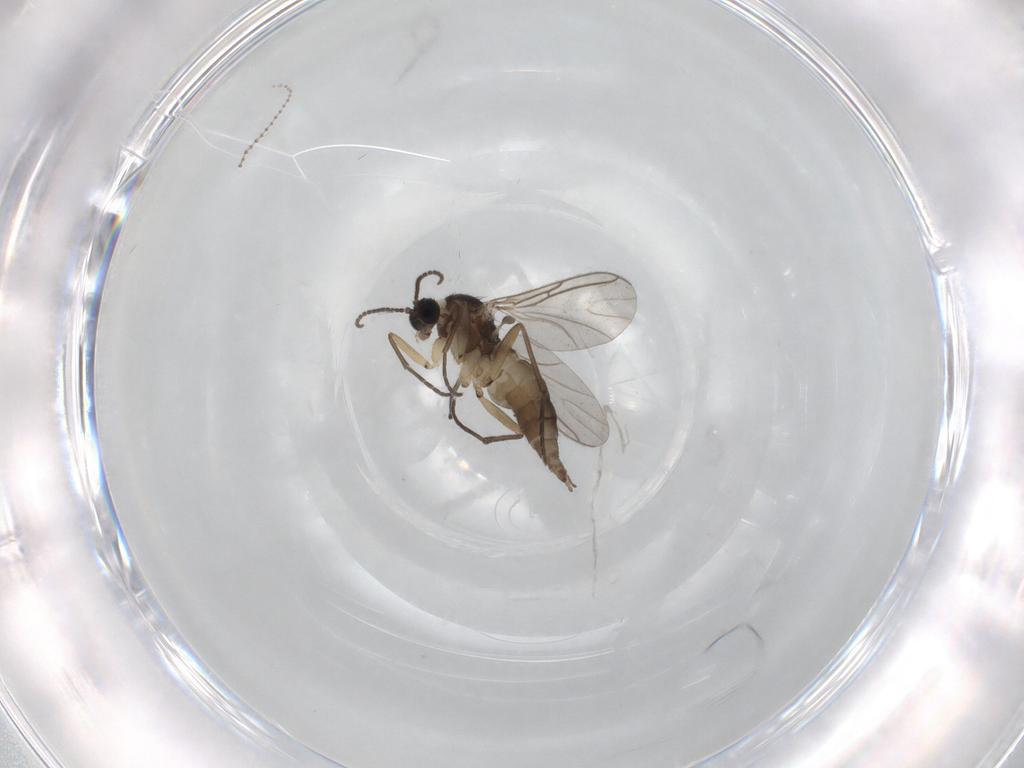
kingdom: Animalia
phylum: Arthropoda
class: Insecta
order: Diptera
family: Sciaridae
